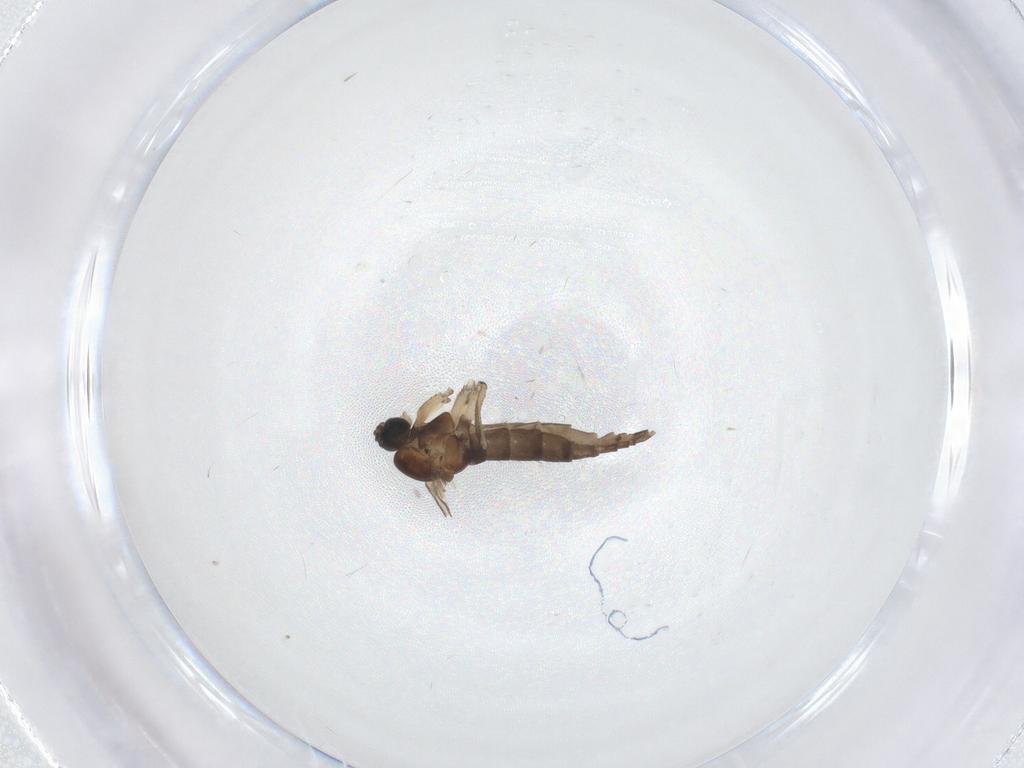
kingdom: Animalia
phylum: Arthropoda
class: Insecta
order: Diptera
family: Sciaridae
